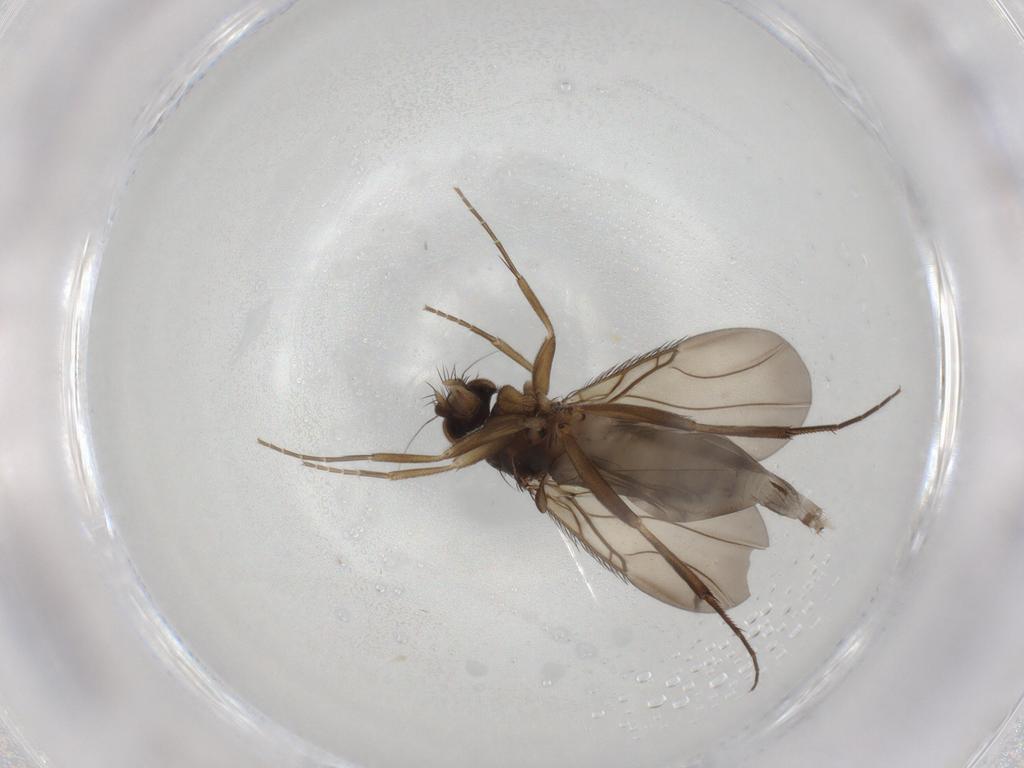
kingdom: Animalia
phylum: Arthropoda
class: Insecta
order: Diptera
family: Phoridae
